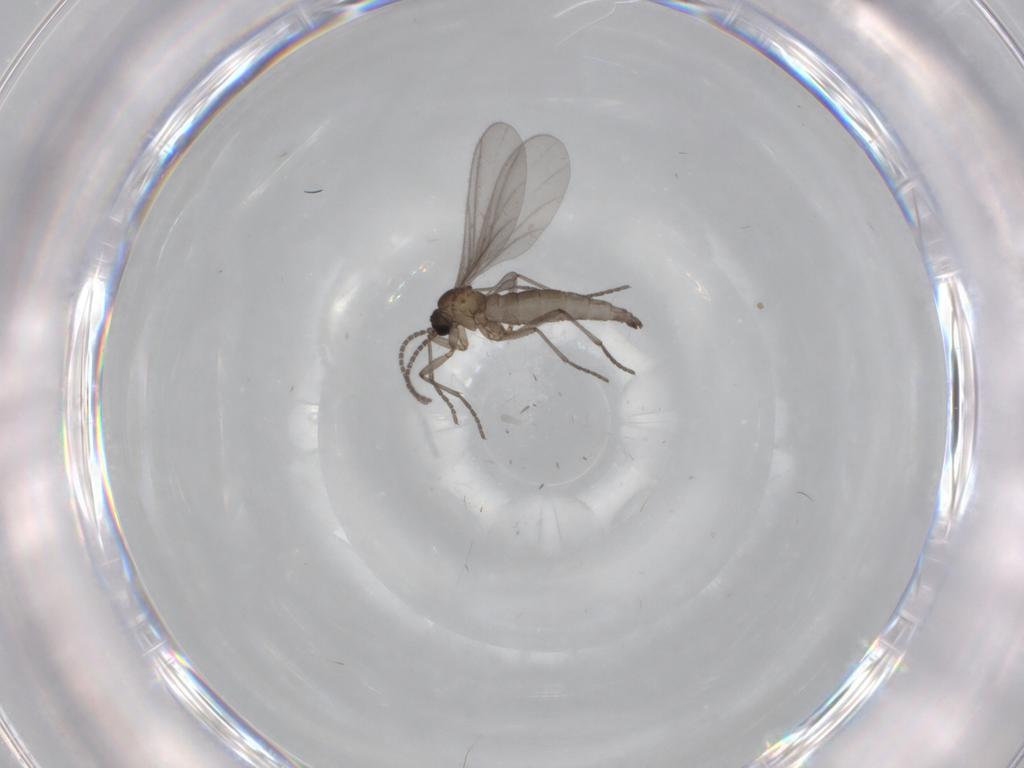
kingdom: Animalia
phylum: Arthropoda
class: Insecta
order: Diptera
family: Sciaridae
